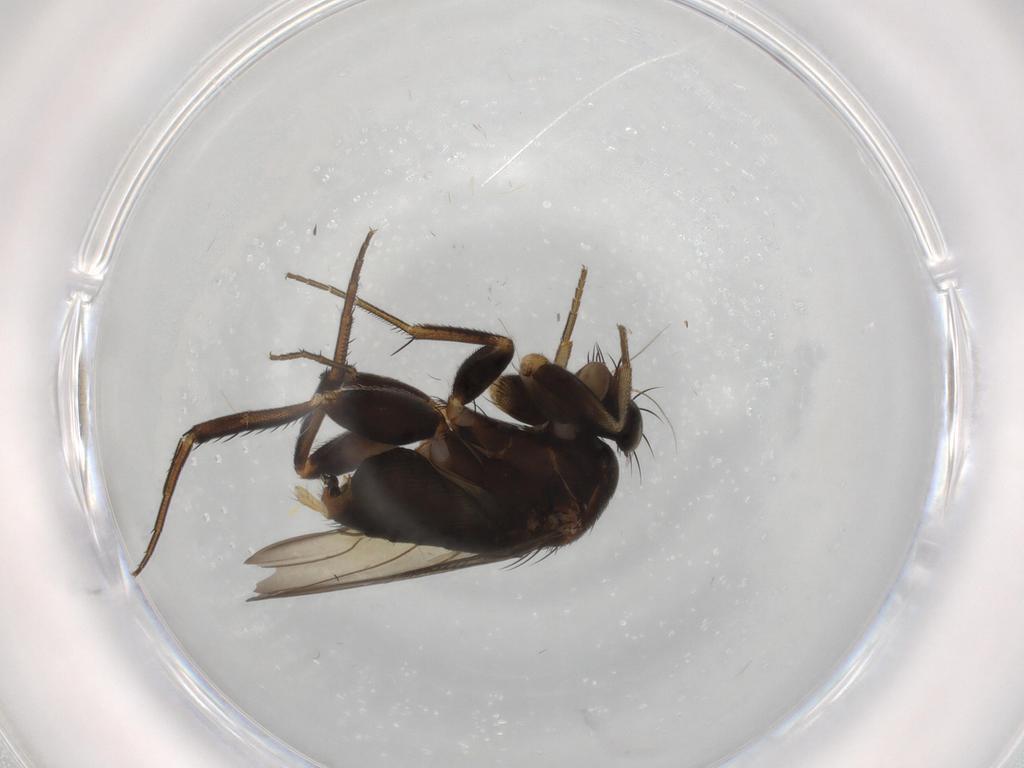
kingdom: Animalia
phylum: Arthropoda
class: Insecta
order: Diptera
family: Phoridae
